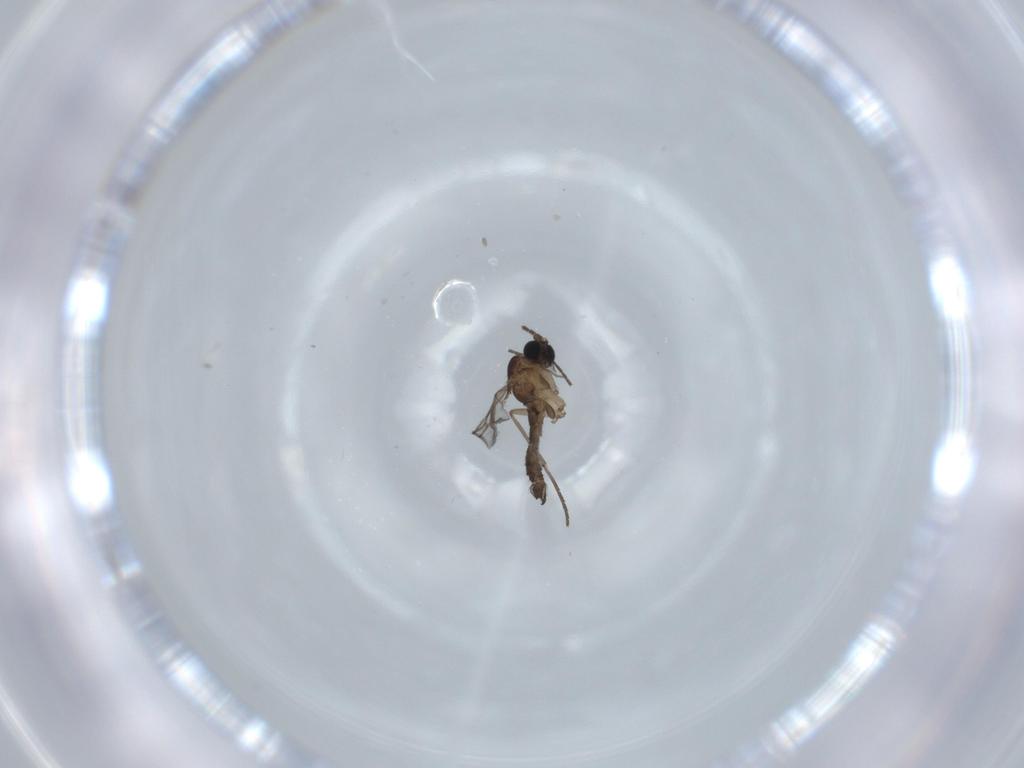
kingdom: Animalia
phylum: Arthropoda
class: Insecta
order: Diptera
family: Sciaridae
